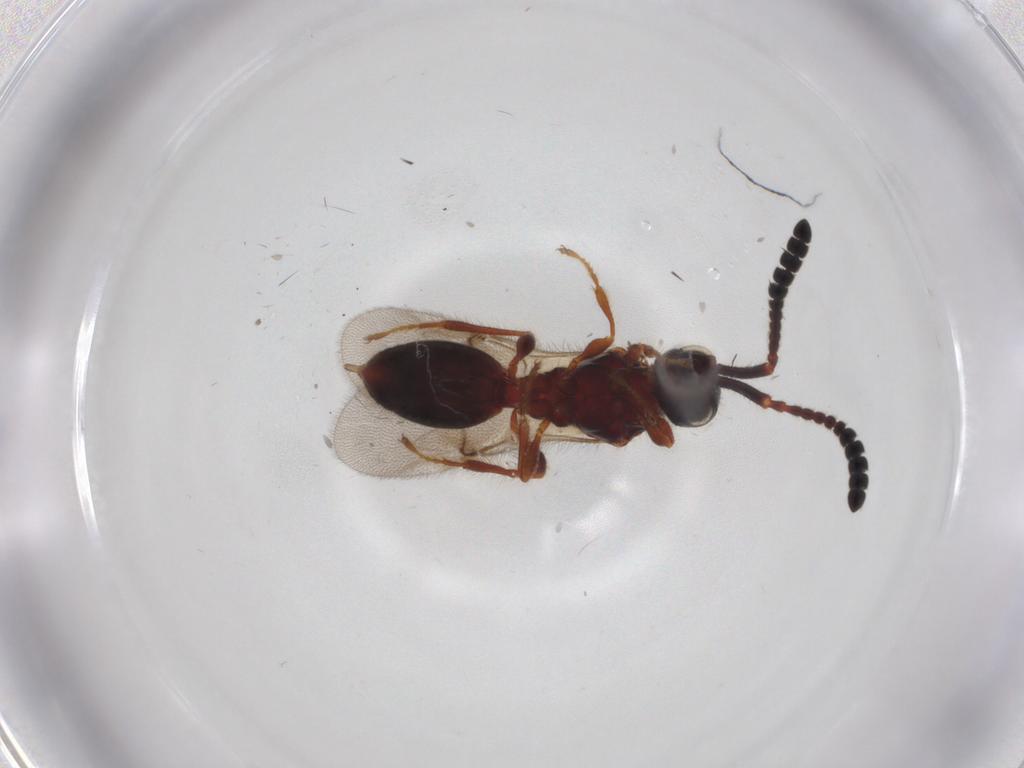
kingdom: Animalia
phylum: Arthropoda
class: Insecta
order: Hymenoptera
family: Diapriidae
